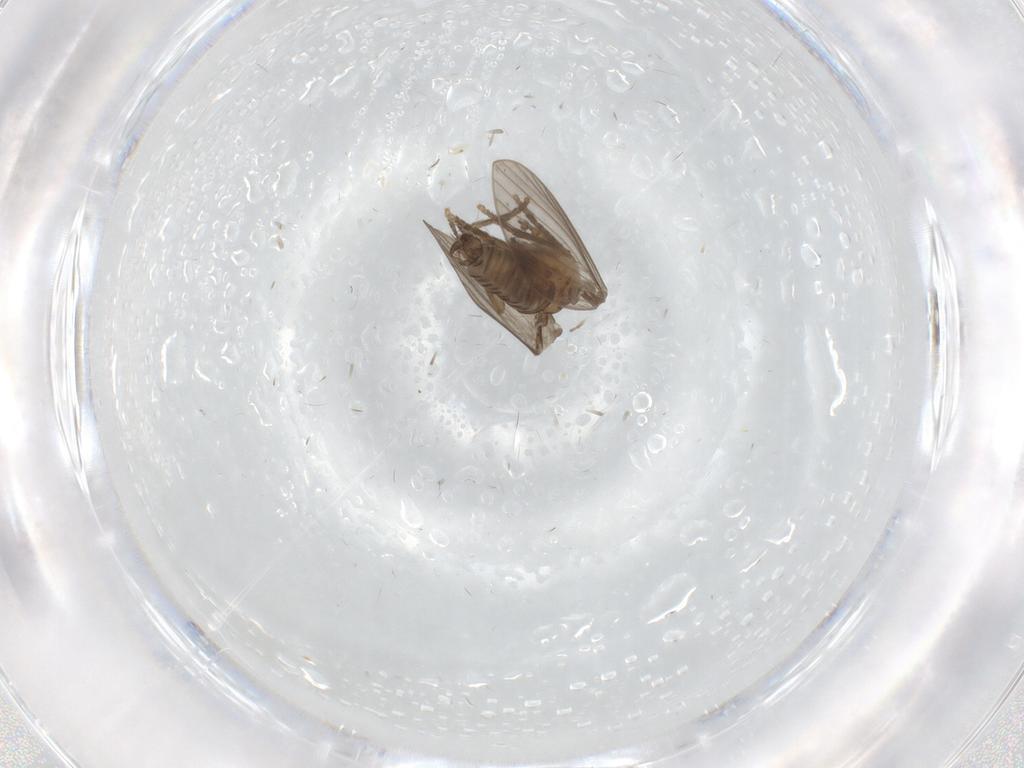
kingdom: Animalia
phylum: Arthropoda
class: Insecta
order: Diptera
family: Psychodidae
